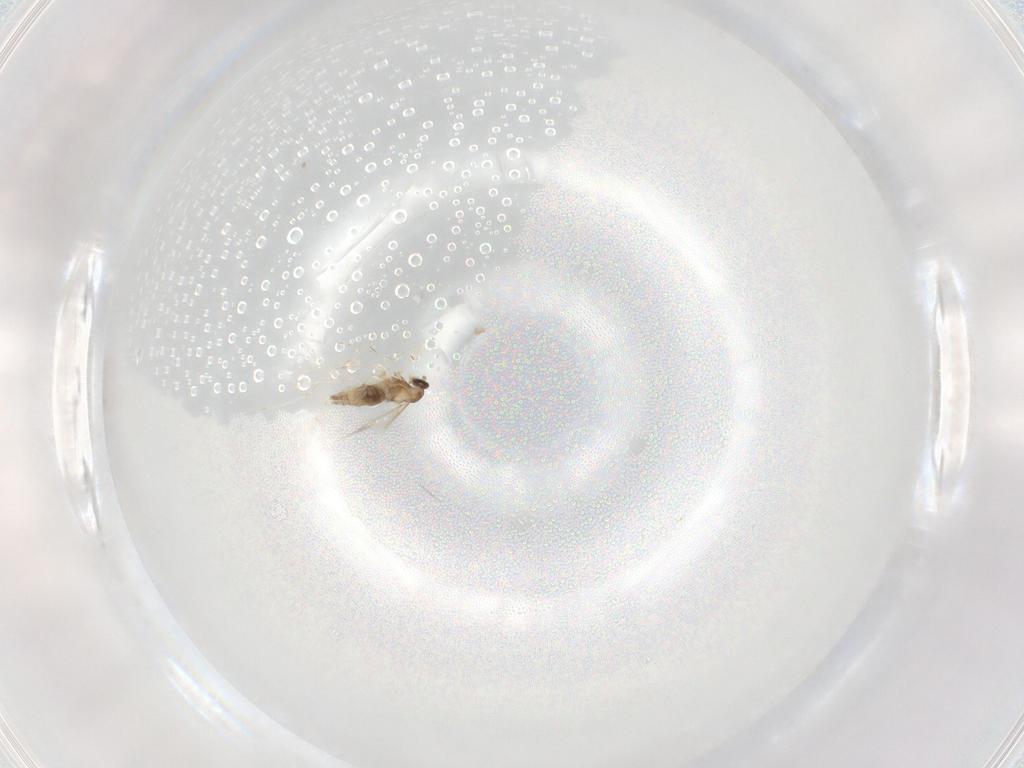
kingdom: Animalia
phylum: Arthropoda
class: Insecta
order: Diptera
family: Cecidomyiidae
